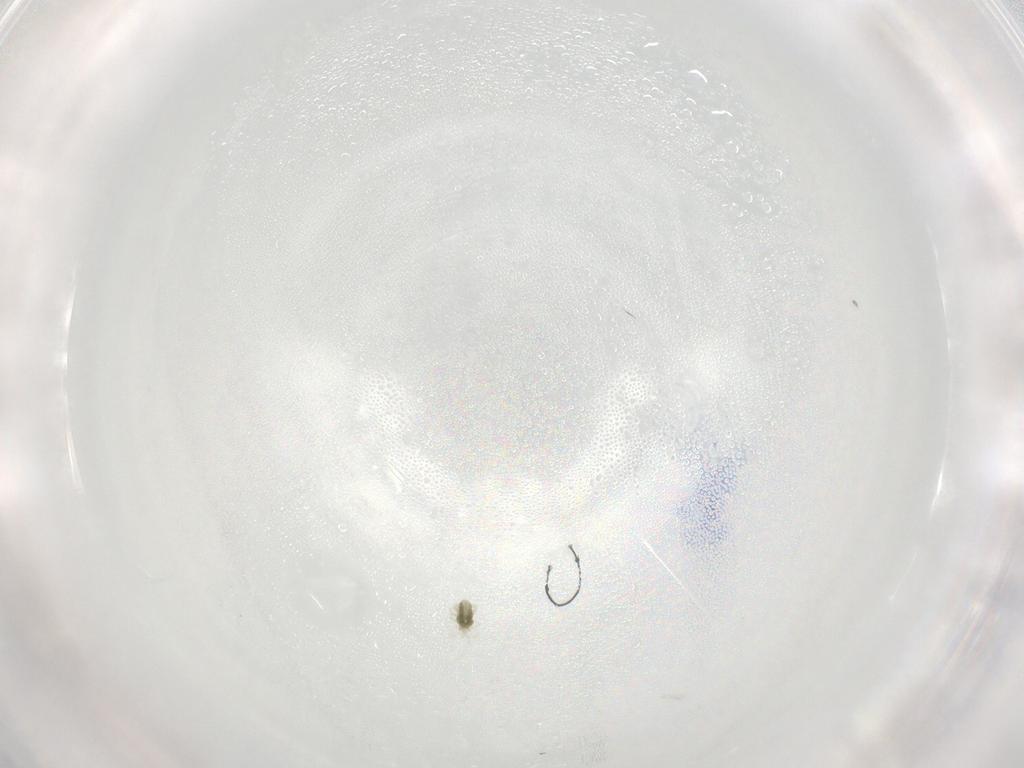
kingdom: Animalia
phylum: Arthropoda
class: Arachnida
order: Trombidiformes
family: Eupodidae
